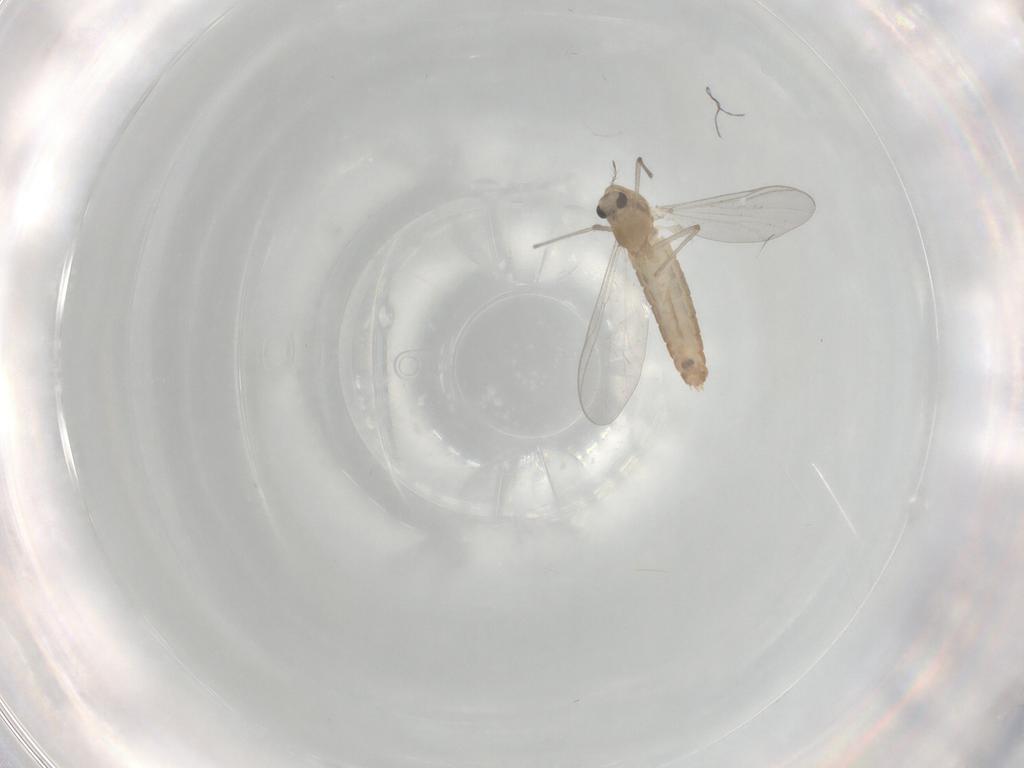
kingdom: Animalia
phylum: Arthropoda
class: Insecta
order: Diptera
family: Chironomidae
